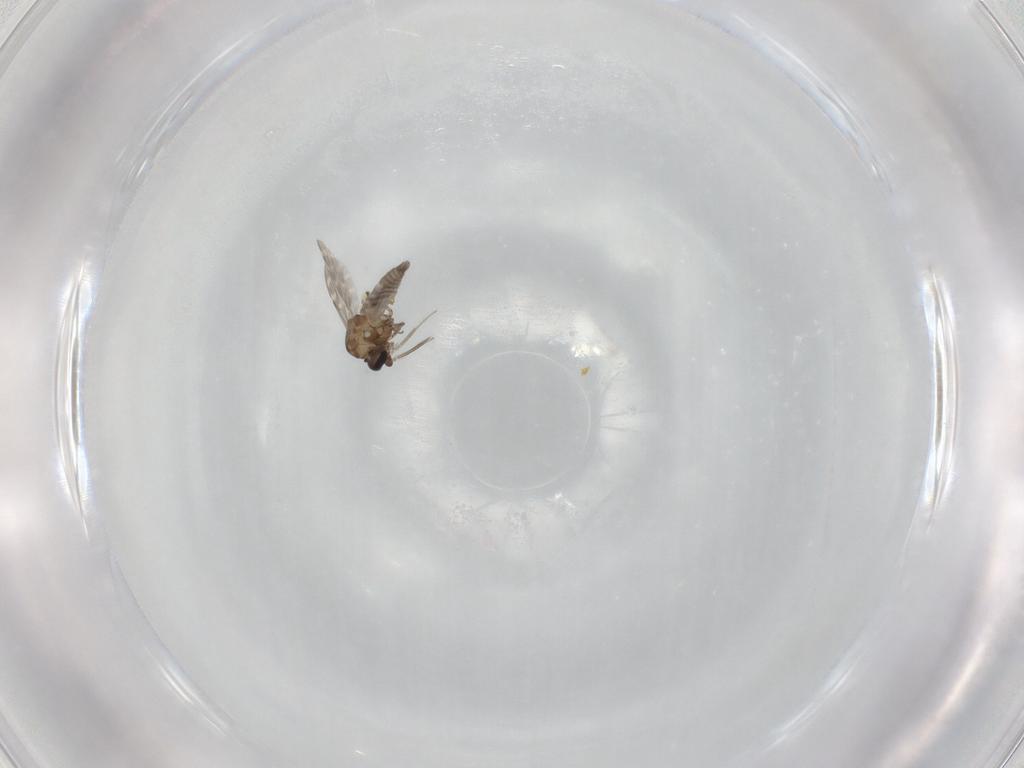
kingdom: Animalia
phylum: Arthropoda
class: Insecta
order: Diptera
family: Ceratopogonidae
